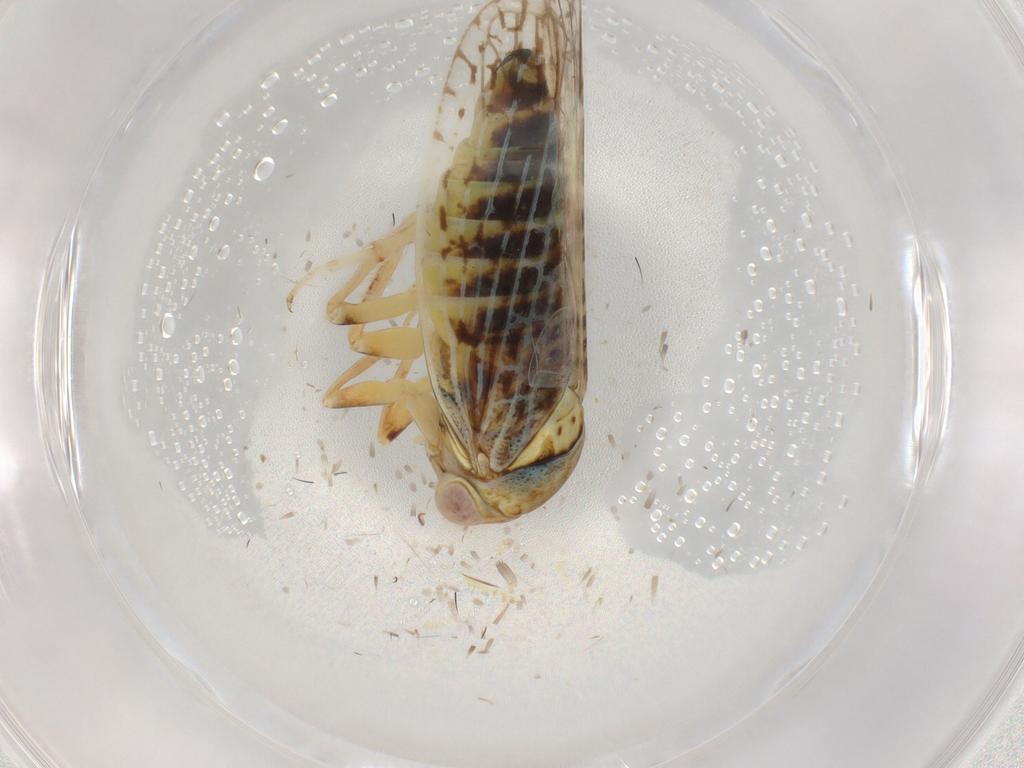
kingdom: Animalia
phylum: Arthropoda
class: Insecta
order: Hemiptera
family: Cicadellidae
